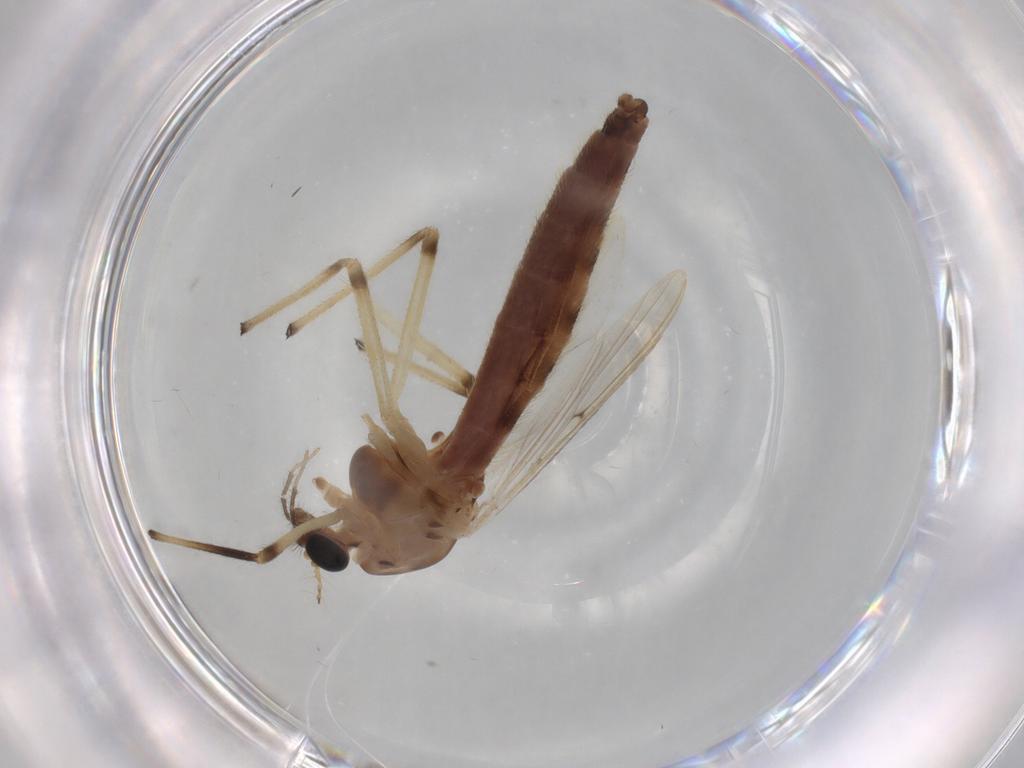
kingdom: Animalia
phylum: Arthropoda
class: Insecta
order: Diptera
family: Chironomidae
